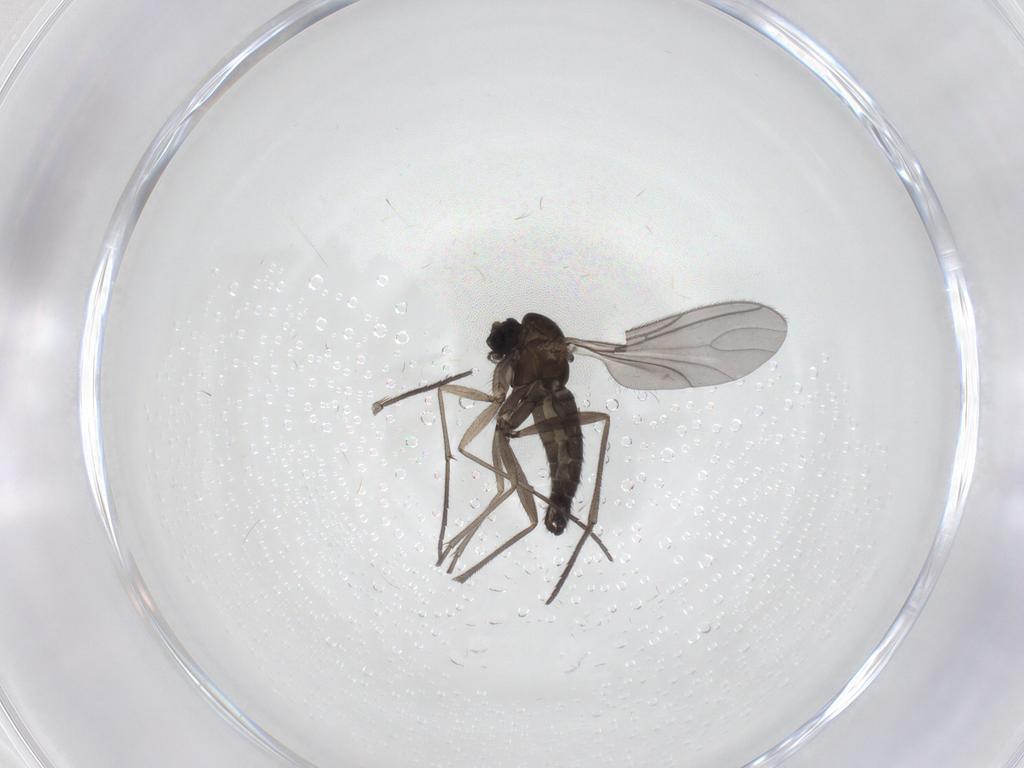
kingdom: Animalia
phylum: Arthropoda
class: Insecta
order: Diptera
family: Sciaridae
